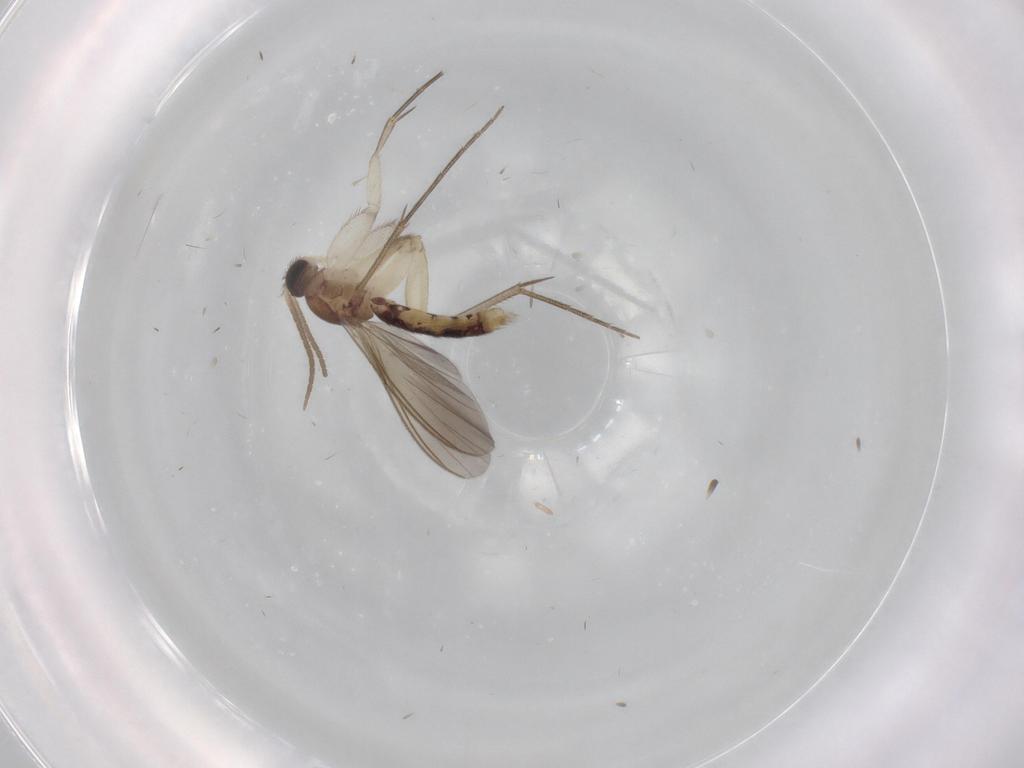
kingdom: Animalia
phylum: Arthropoda
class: Insecta
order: Diptera
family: Mycetophilidae
